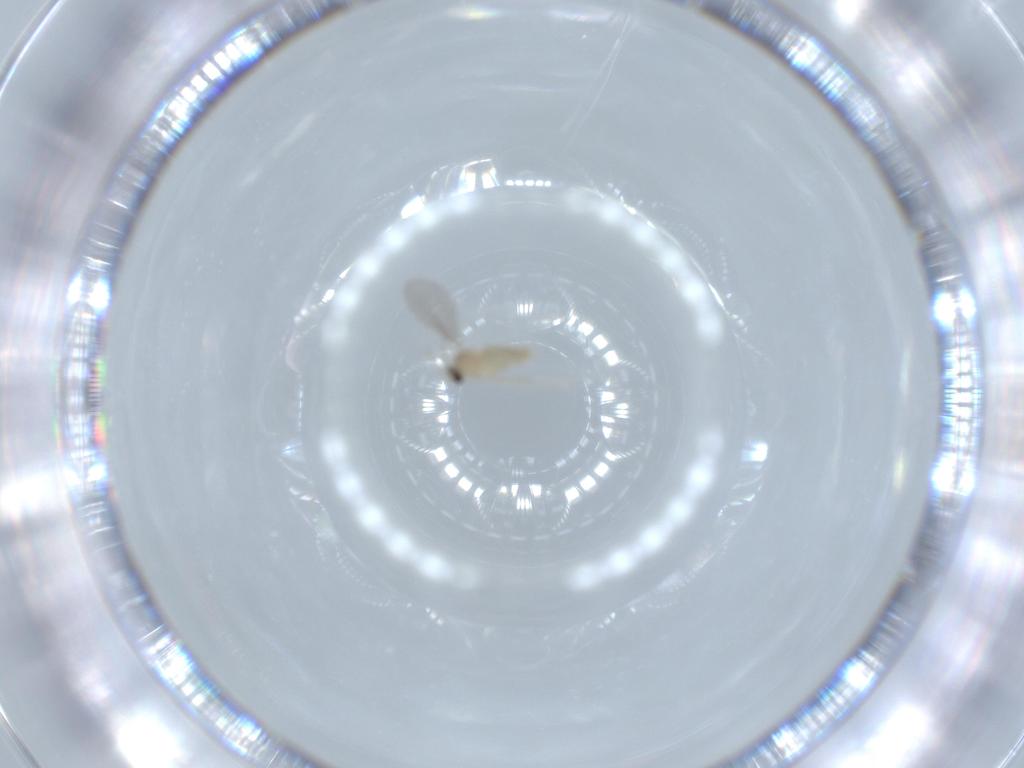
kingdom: Animalia
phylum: Arthropoda
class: Insecta
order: Diptera
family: Cecidomyiidae
